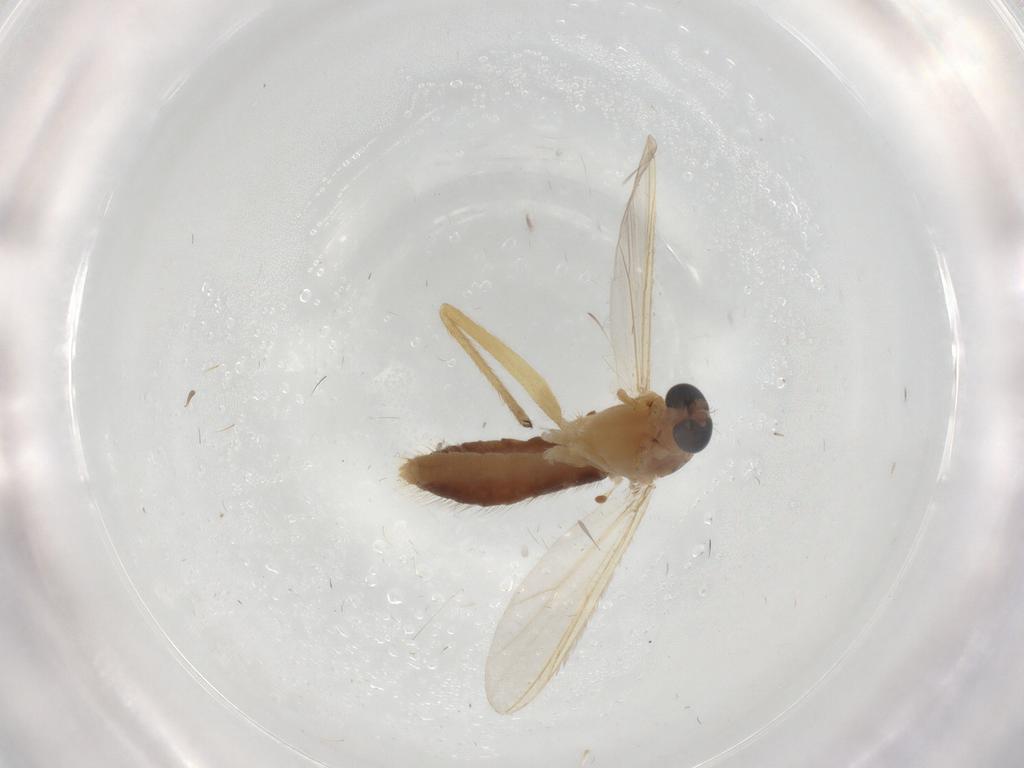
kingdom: Animalia
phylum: Arthropoda
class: Insecta
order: Diptera
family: Chironomidae
